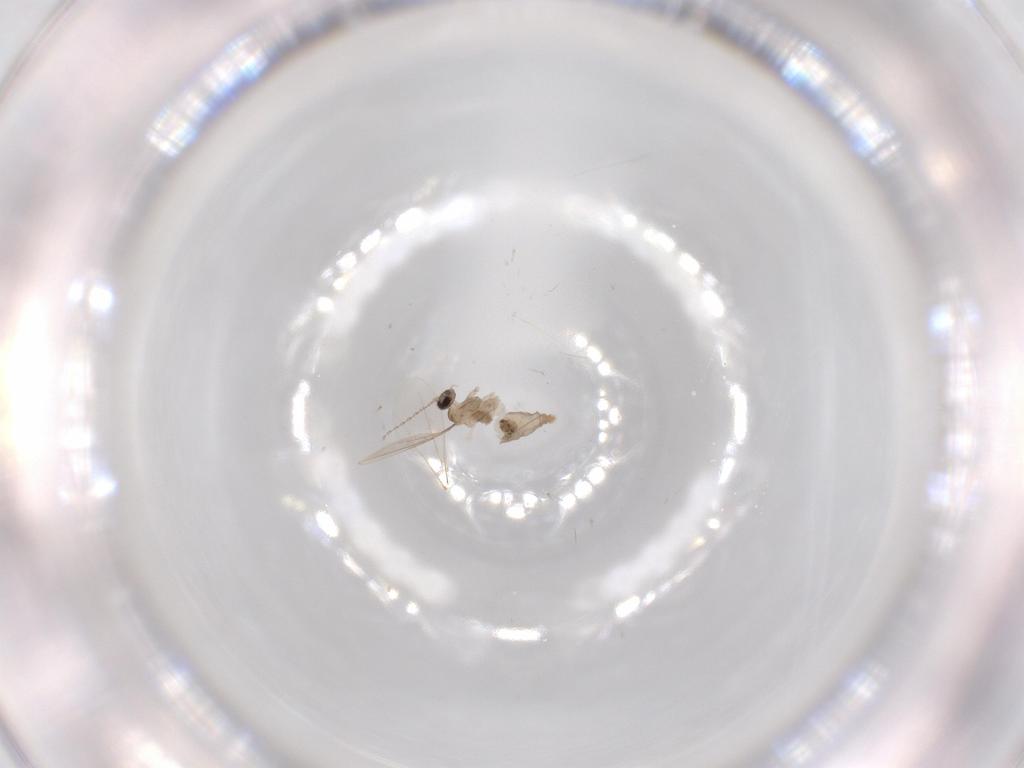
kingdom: Animalia
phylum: Arthropoda
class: Insecta
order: Diptera
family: Cecidomyiidae
